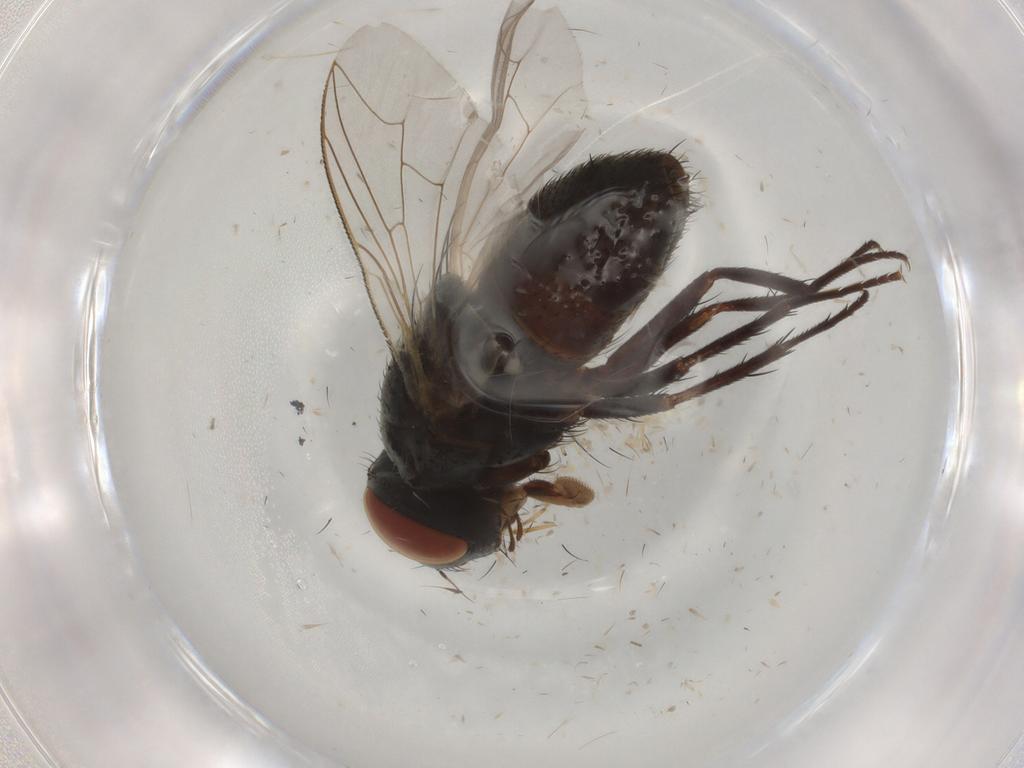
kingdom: Animalia
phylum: Arthropoda
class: Insecta
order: Diptera
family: Sarcophagidae
